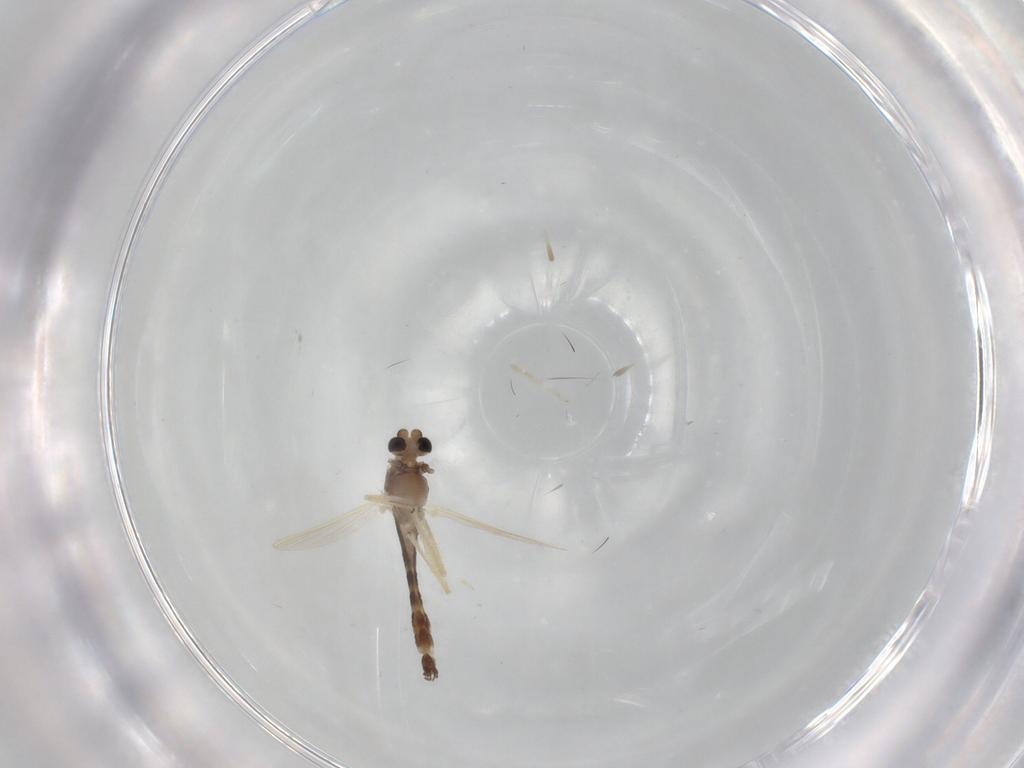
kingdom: Animalia
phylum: Arthropoda
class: Insecta
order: Diptera
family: Chironomidae
